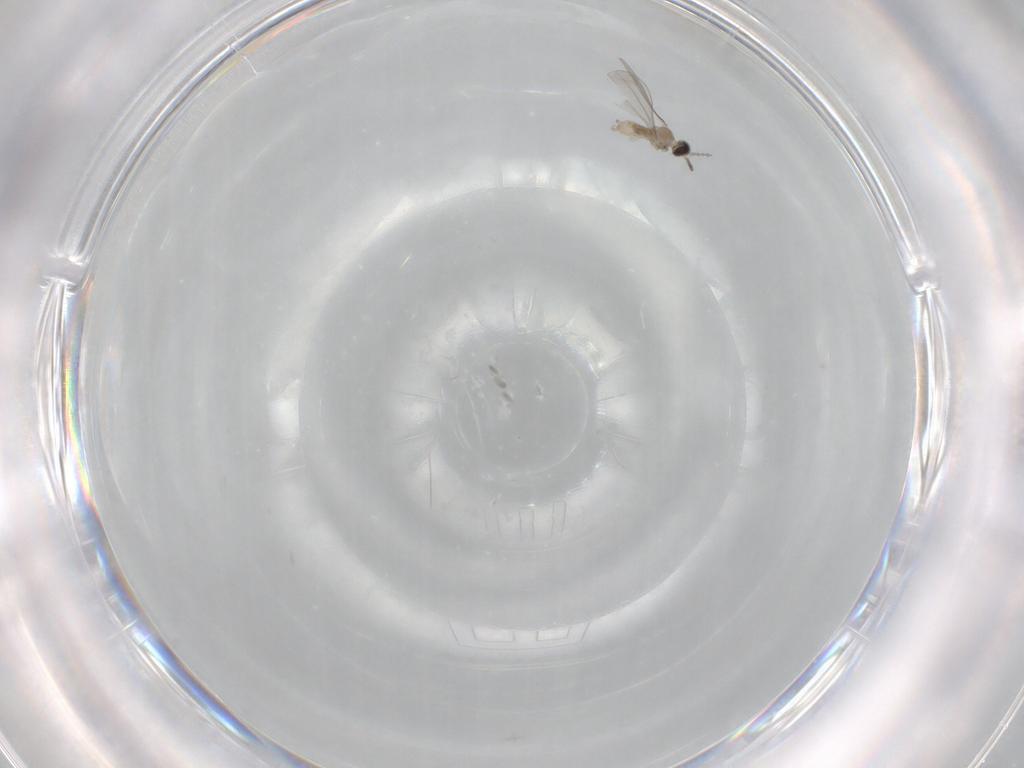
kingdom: Animalia
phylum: Arthropoda
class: Insecta
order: Diptera
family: Cecidomyiidae
